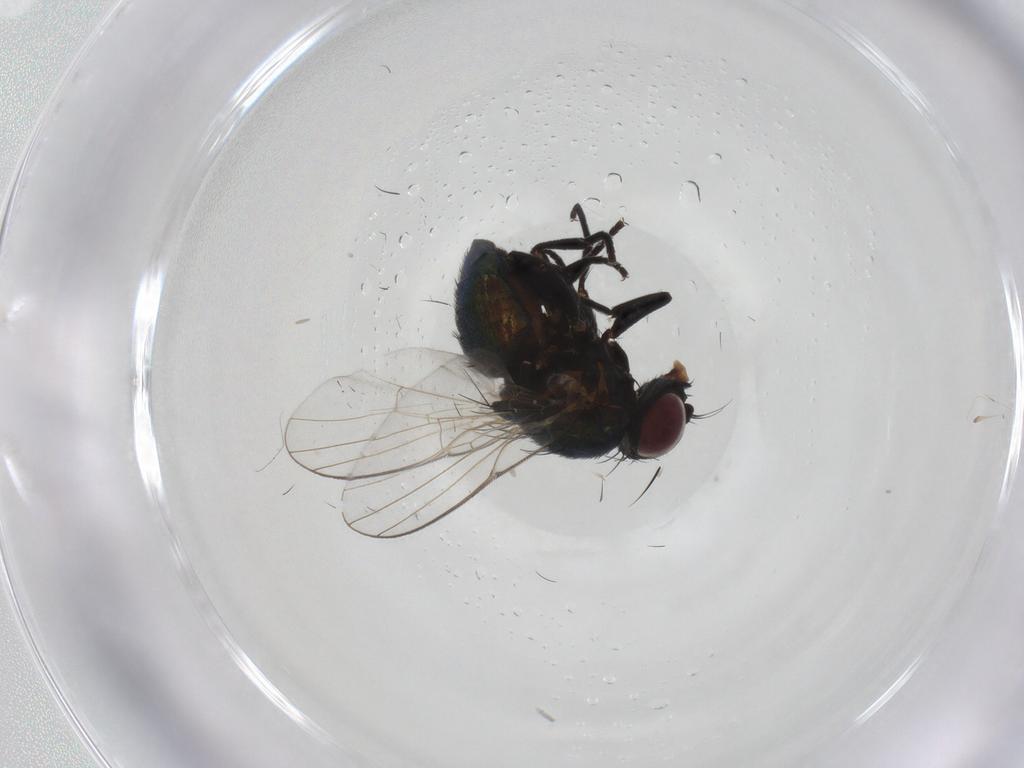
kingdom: Animalia
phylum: Arthropoda
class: Insecta
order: Diptera
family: Agromyzidae
